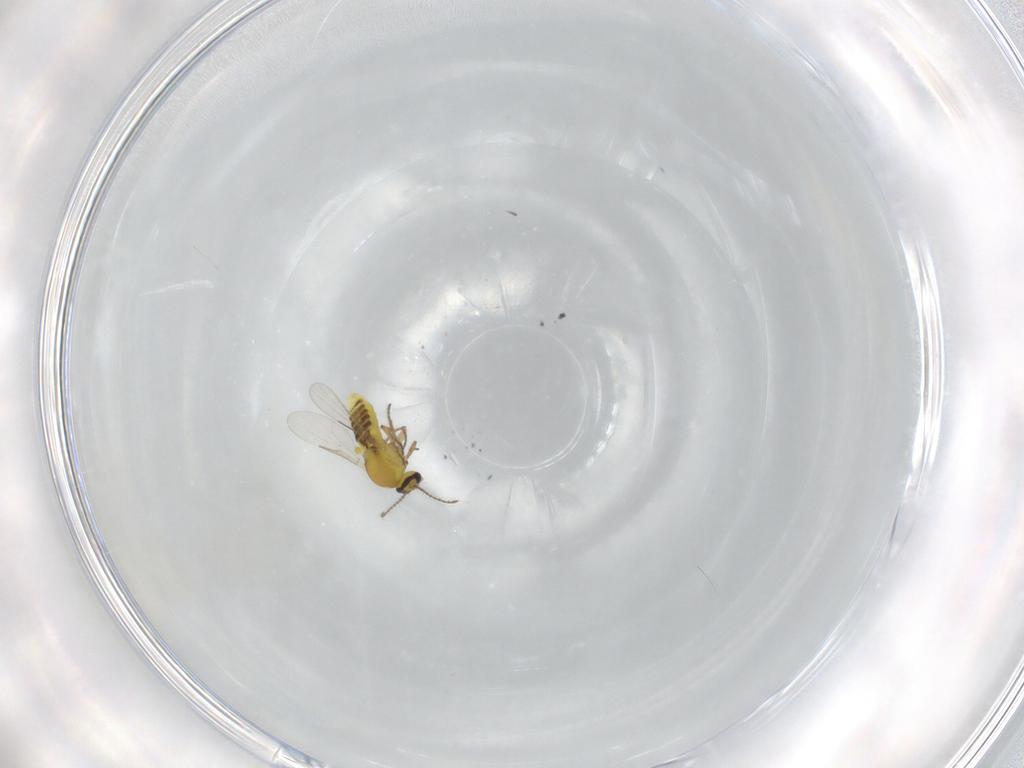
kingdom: Animalia
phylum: Arthropoda
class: Insecta
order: Diptera
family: Ceratopogonidae
